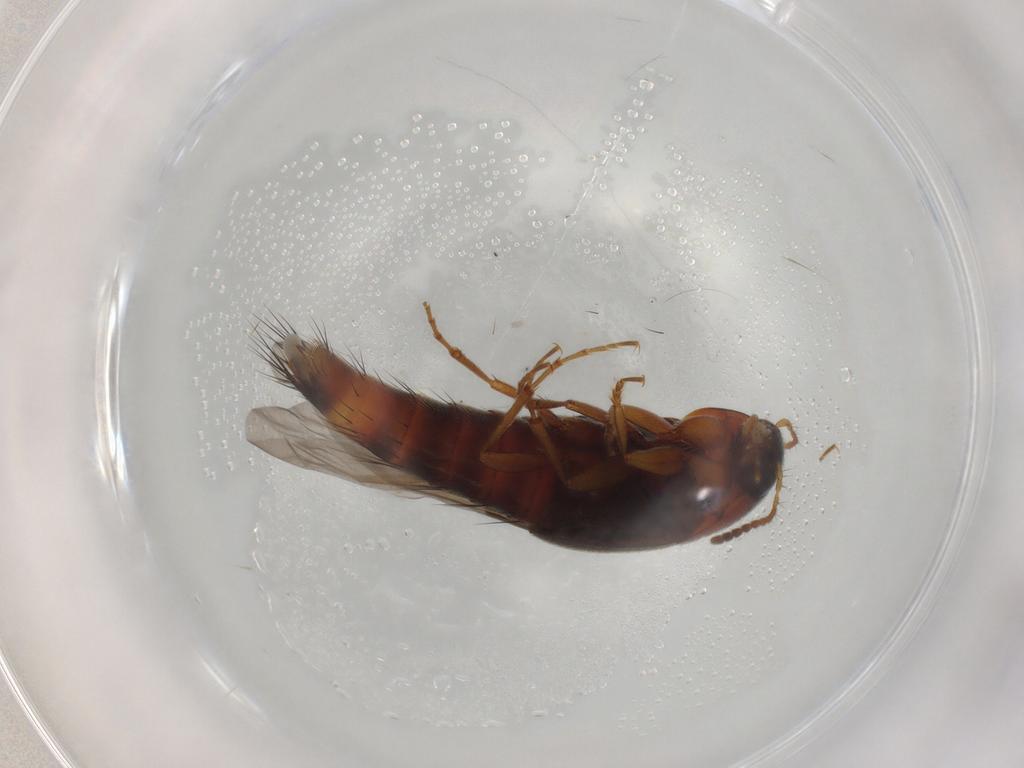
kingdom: Animalia
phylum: Arthropoda
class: Insecta
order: Coleoptera
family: Staphylinidae
